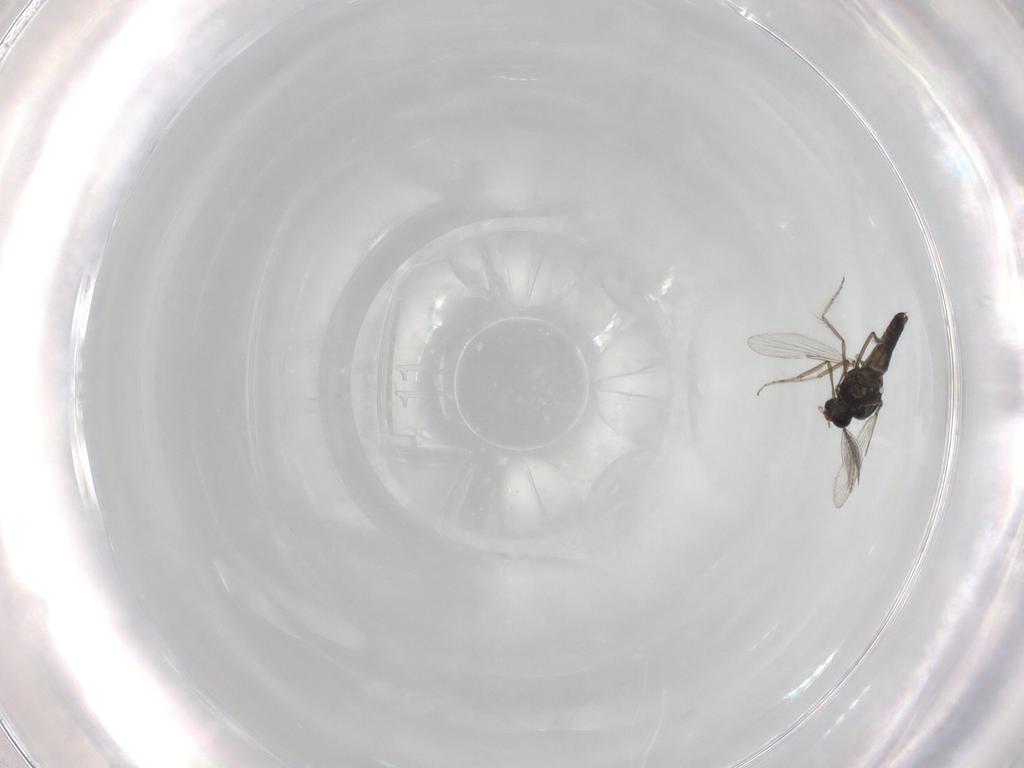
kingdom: Animalia
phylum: Arthropoda
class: Insecta
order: Diptera
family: Ceratopogonidae
